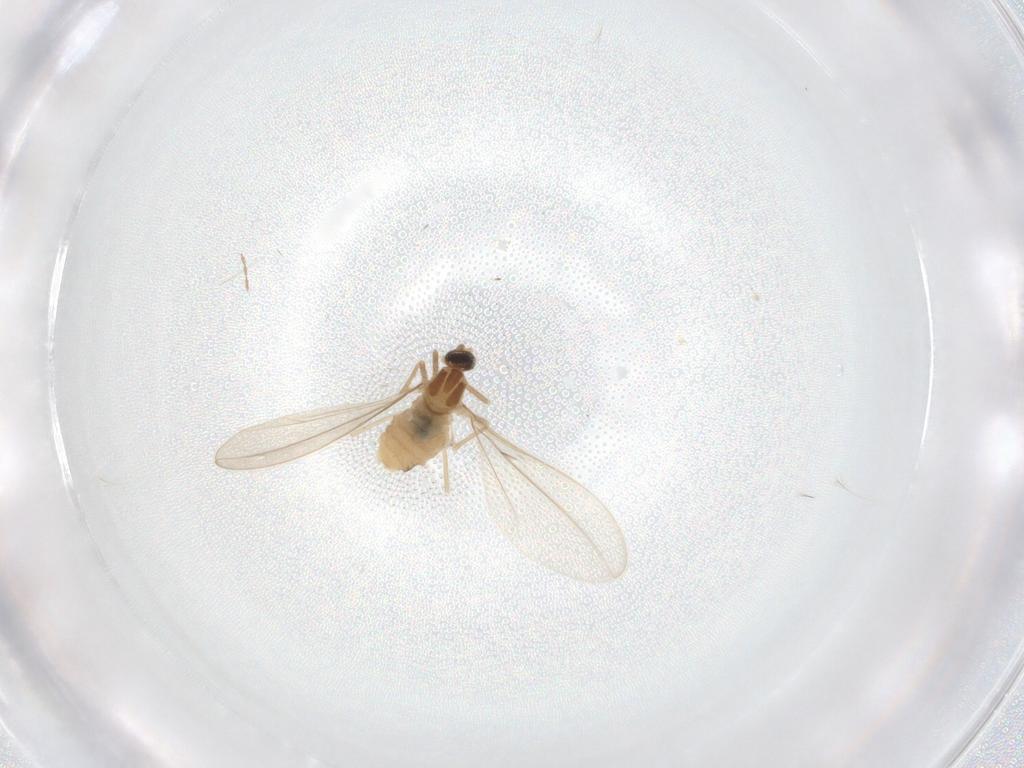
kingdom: Animalia
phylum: Arthropoda
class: Insecta
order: Diptera
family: Cecidomyiidae
